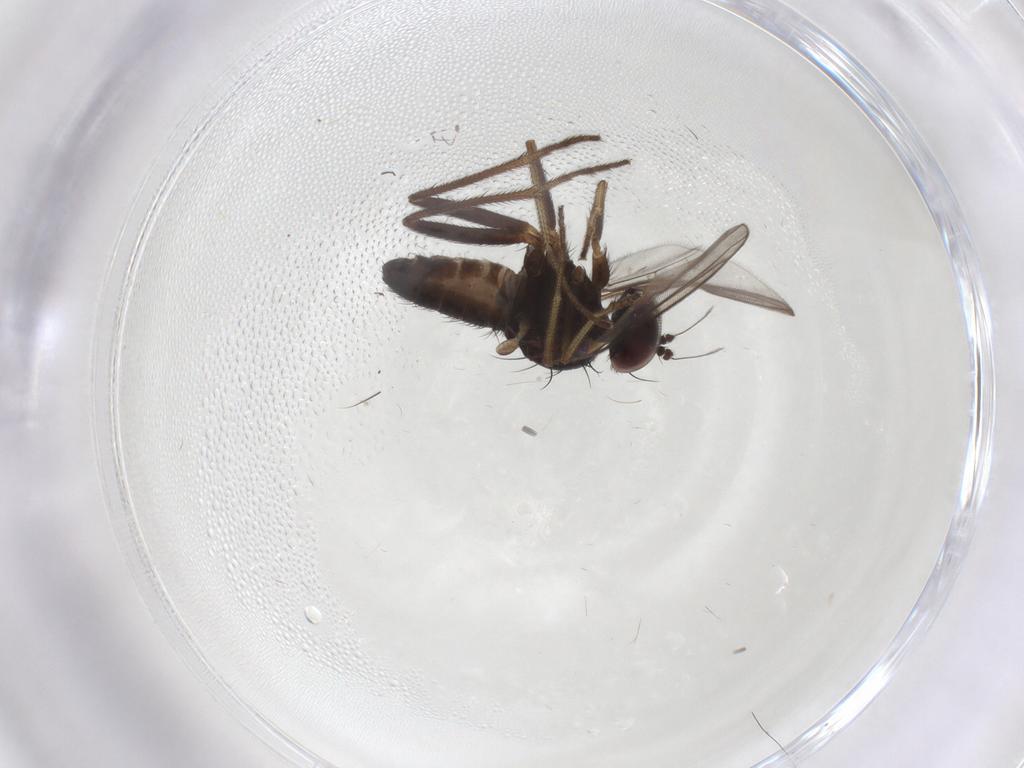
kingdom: Animalia
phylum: Arthropoda
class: Insecta
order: Diptera
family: Dolichopodidae
